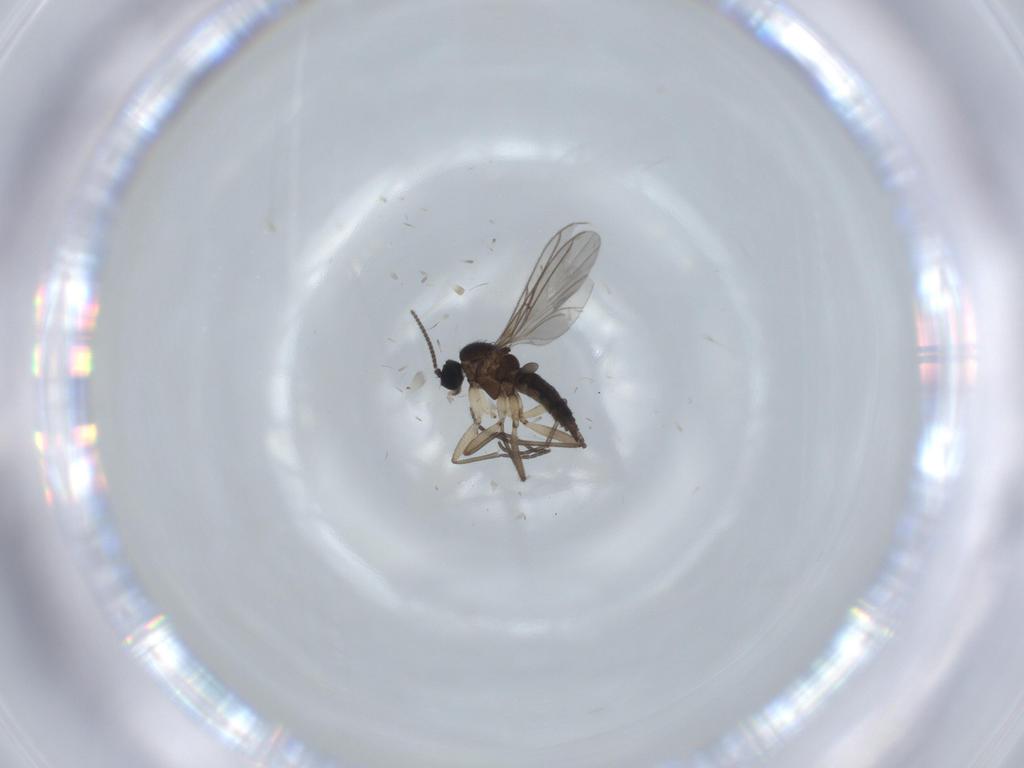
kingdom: Animalia
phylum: Arthropoda
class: Insecta
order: Diptera
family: Sciaridae
